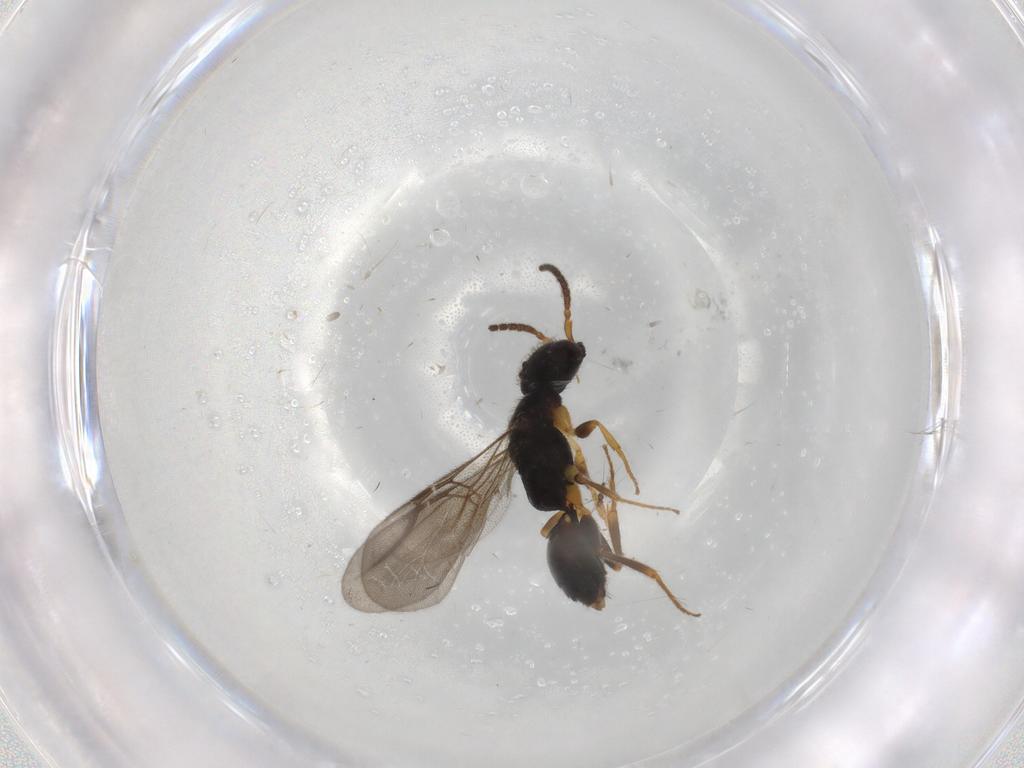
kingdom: Animalia
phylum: Arthropoda
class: Insecta
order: Hymenoptera
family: Bethylidae
